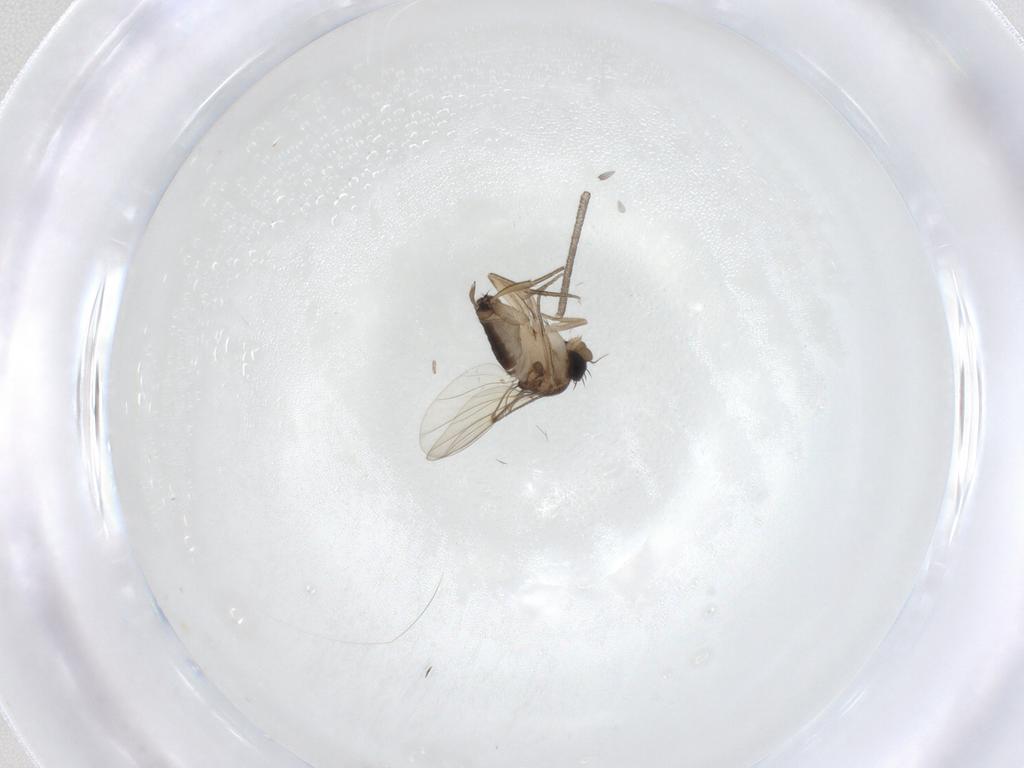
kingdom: Animalia
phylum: Arthropoda
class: Insecta
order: Diptera
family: Sciaridae
